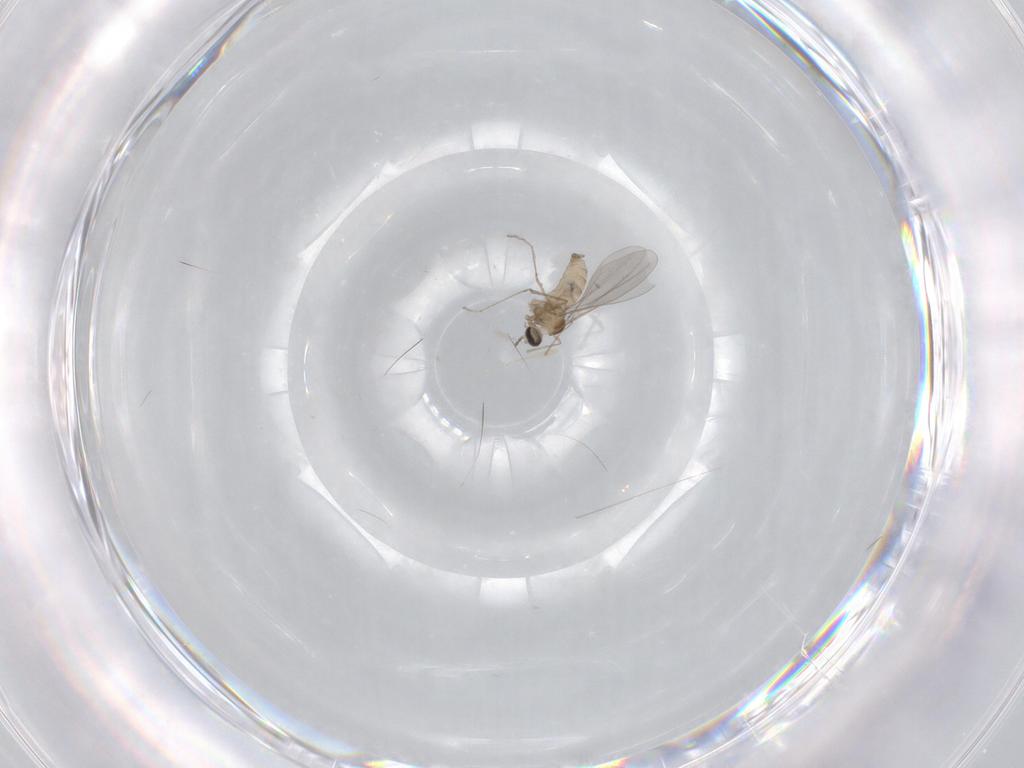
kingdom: Animalia
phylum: Arthropoda
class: Insecta
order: Diptera
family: Cecidomyiidae
